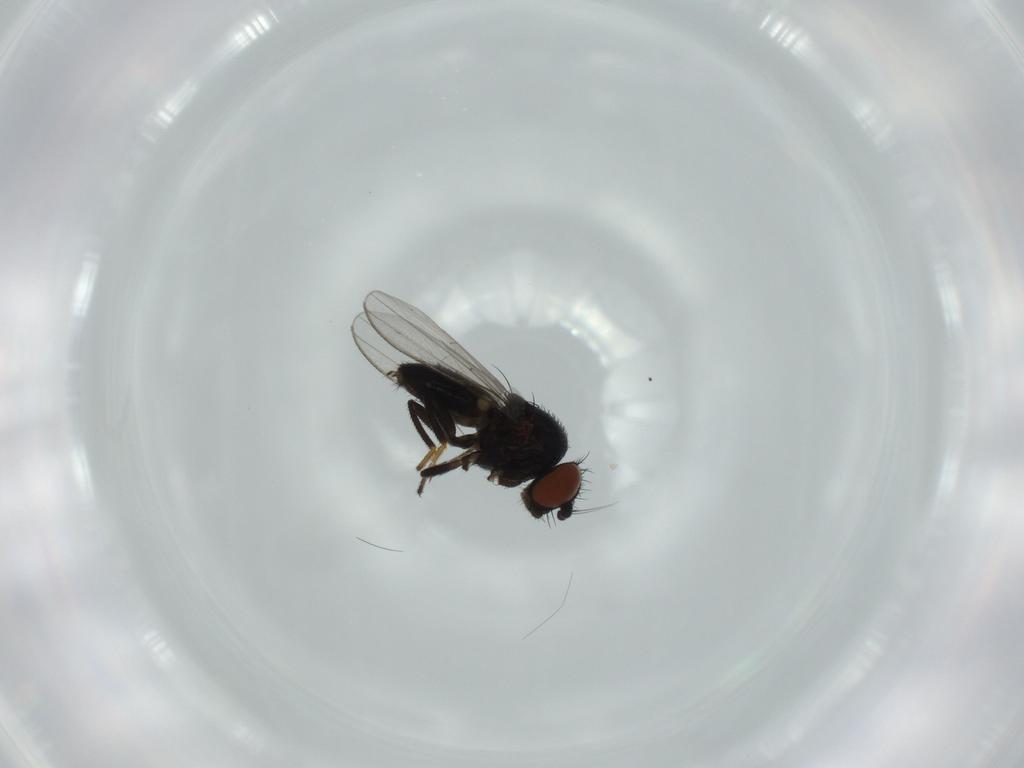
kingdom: Animalia
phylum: Arthropoda
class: Insecta
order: Diptera
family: Milichiidae
